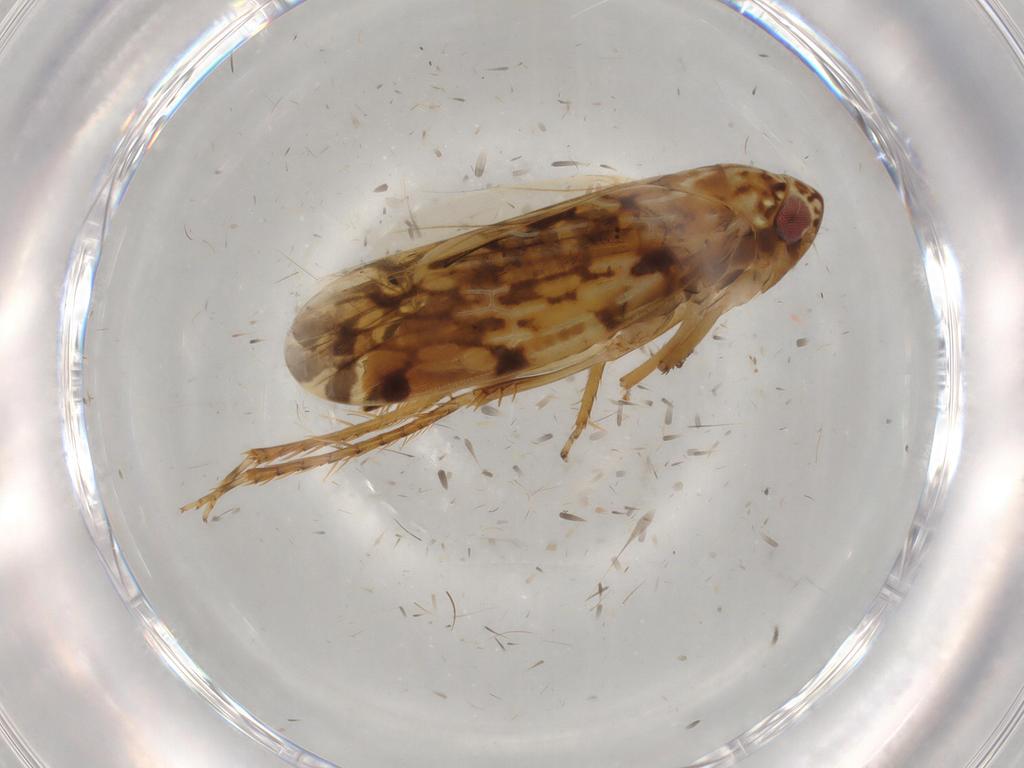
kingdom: Animalia
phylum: Arthropoda
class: Insecta
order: Hemiptera
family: Cicadellidae
